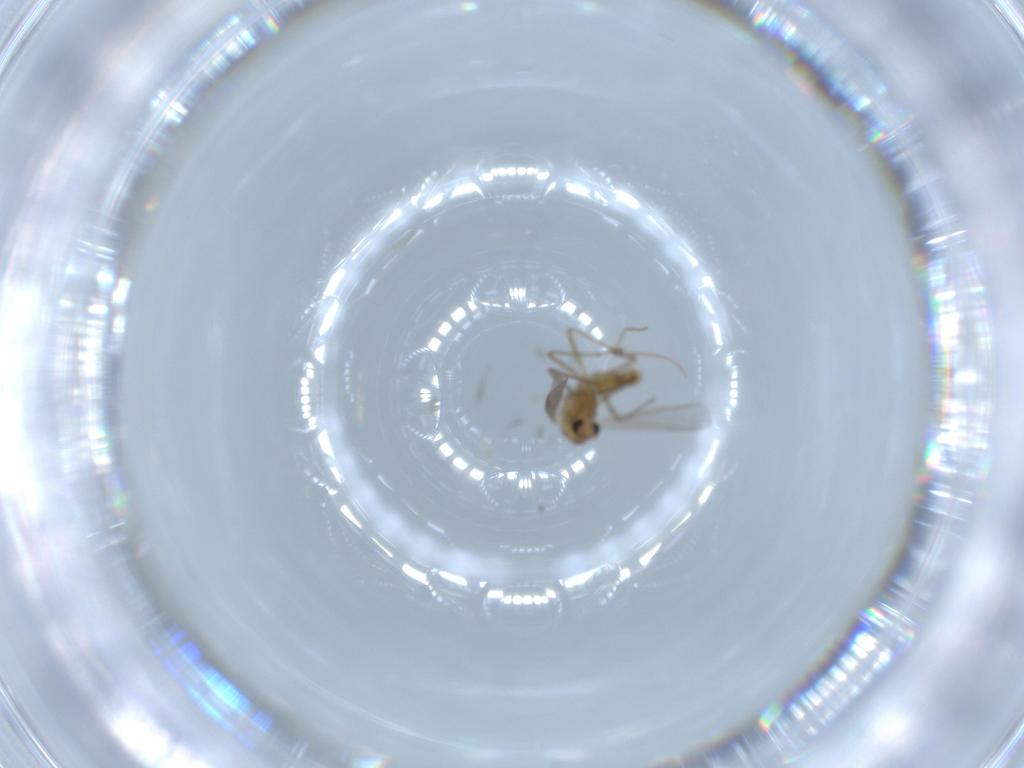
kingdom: Animalia
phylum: Arthropoda
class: Insecta
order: Diptera
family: Chironomidae
